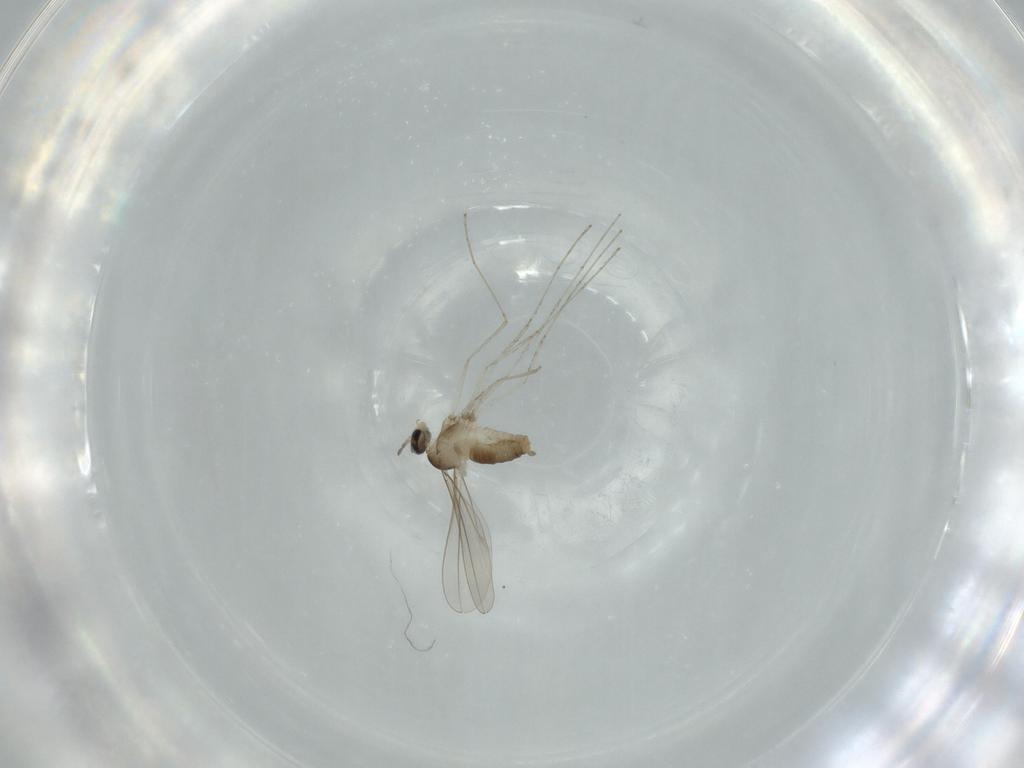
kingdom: Animalia
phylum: Arthropoda
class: Insecta
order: Diptera
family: Cecidomyiidae
